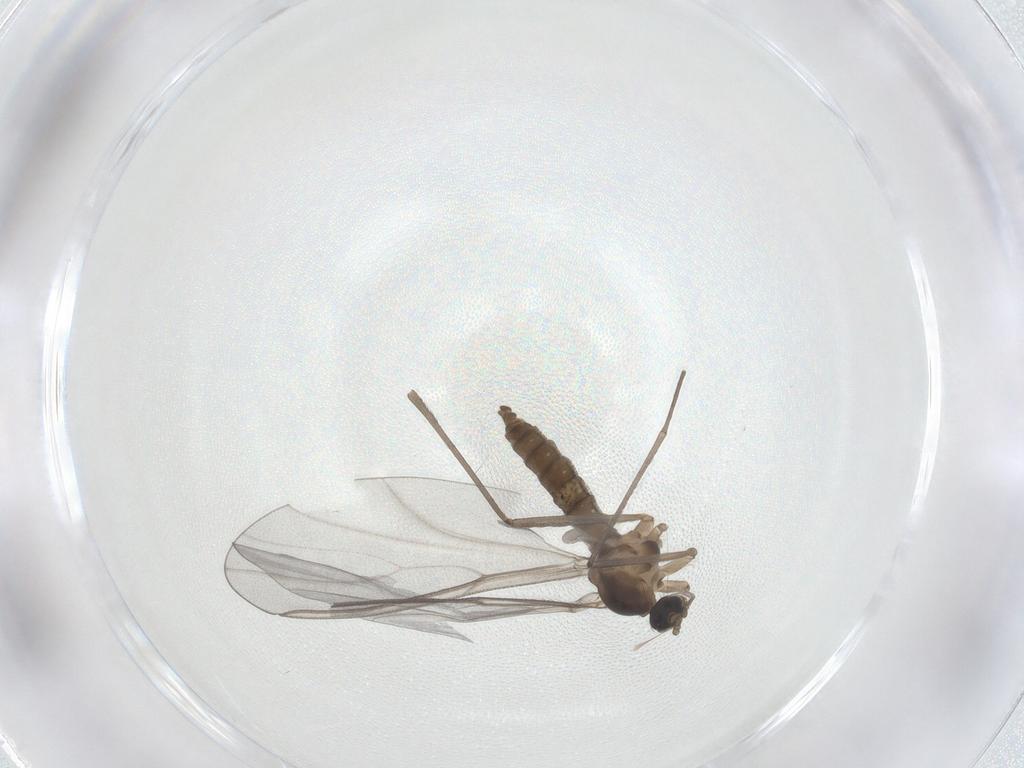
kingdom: Animalia
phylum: Arthropoda
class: Insecta
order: Diptera
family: Cecidomyiidae
